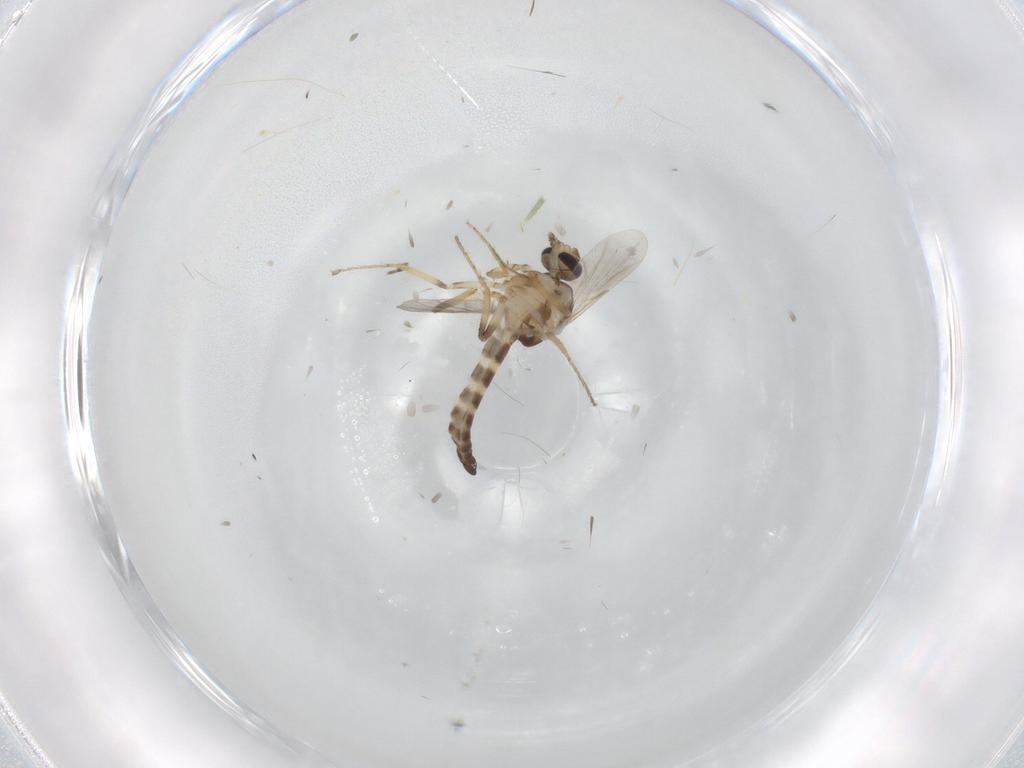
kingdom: Animalia
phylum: Arthropoda
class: Insecta
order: Diptera
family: Ceratopogonidae
